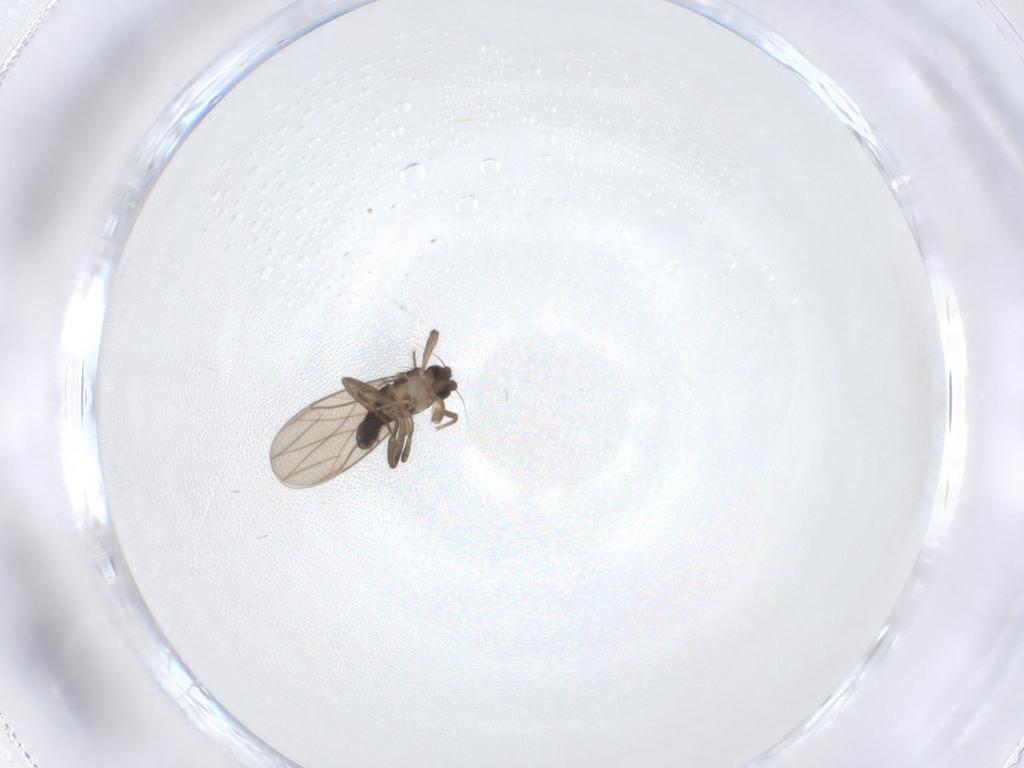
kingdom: Animalia
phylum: Arthropoda
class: Insecta
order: Diptera
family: Phoridae
